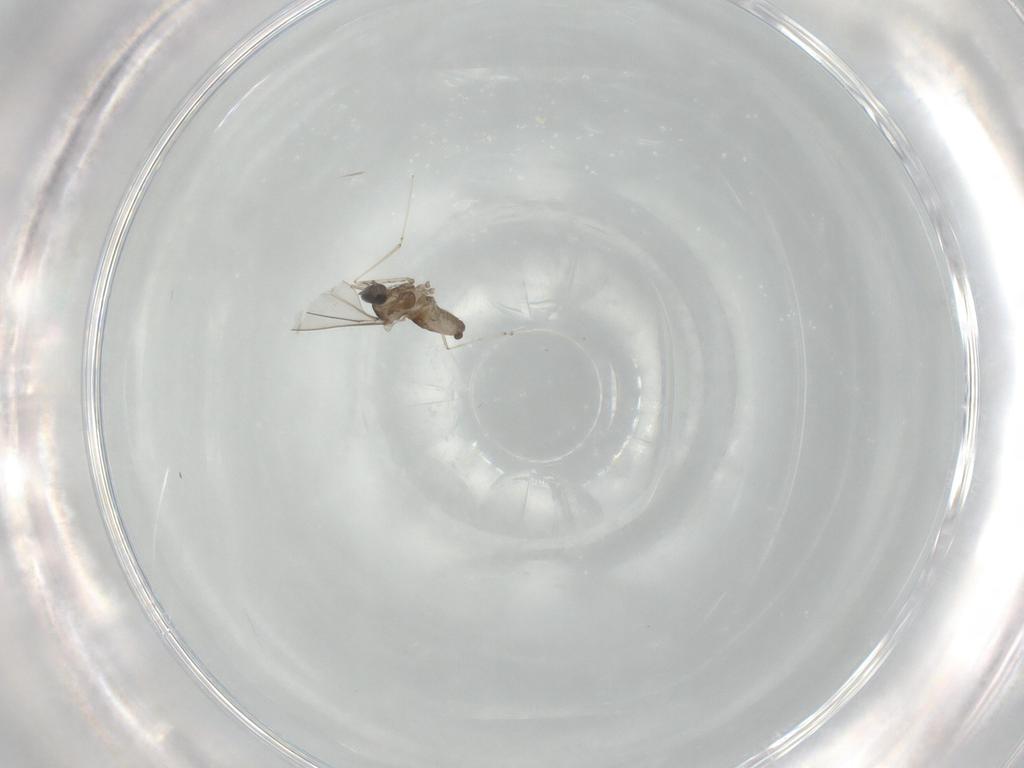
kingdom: Animalia
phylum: Arthropoda
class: Insecta
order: Diptera
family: Cecidomyiidae
